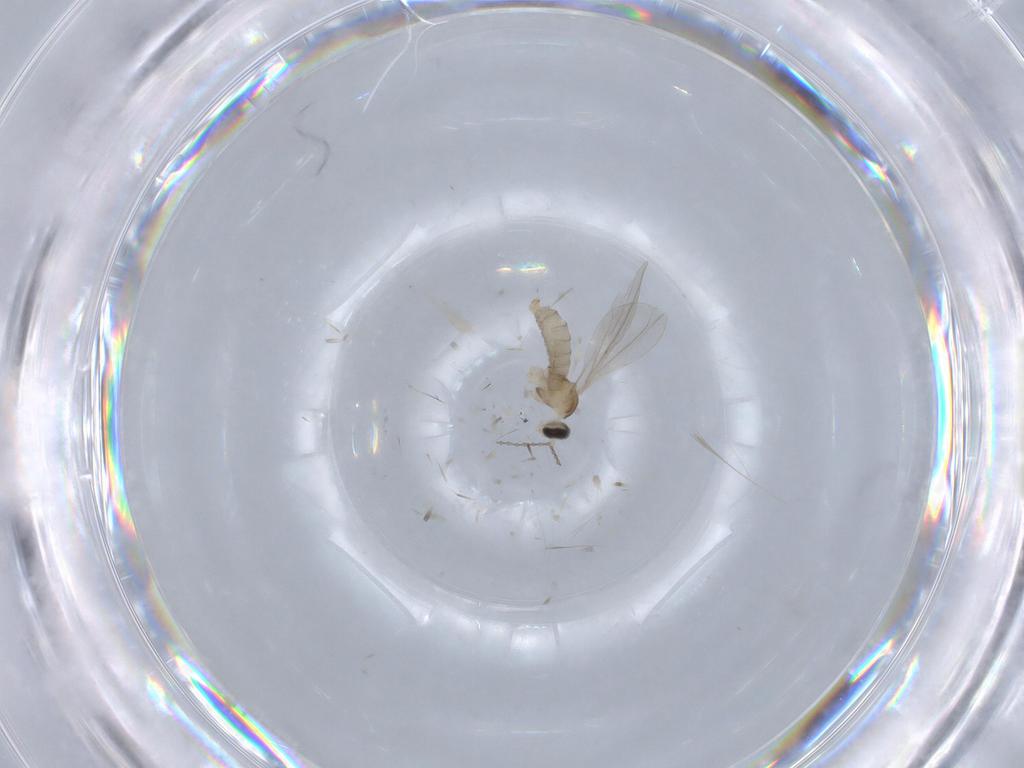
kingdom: Animalia
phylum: Arthropoda
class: Insecta
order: Diptera
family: Cecidomyiidae
